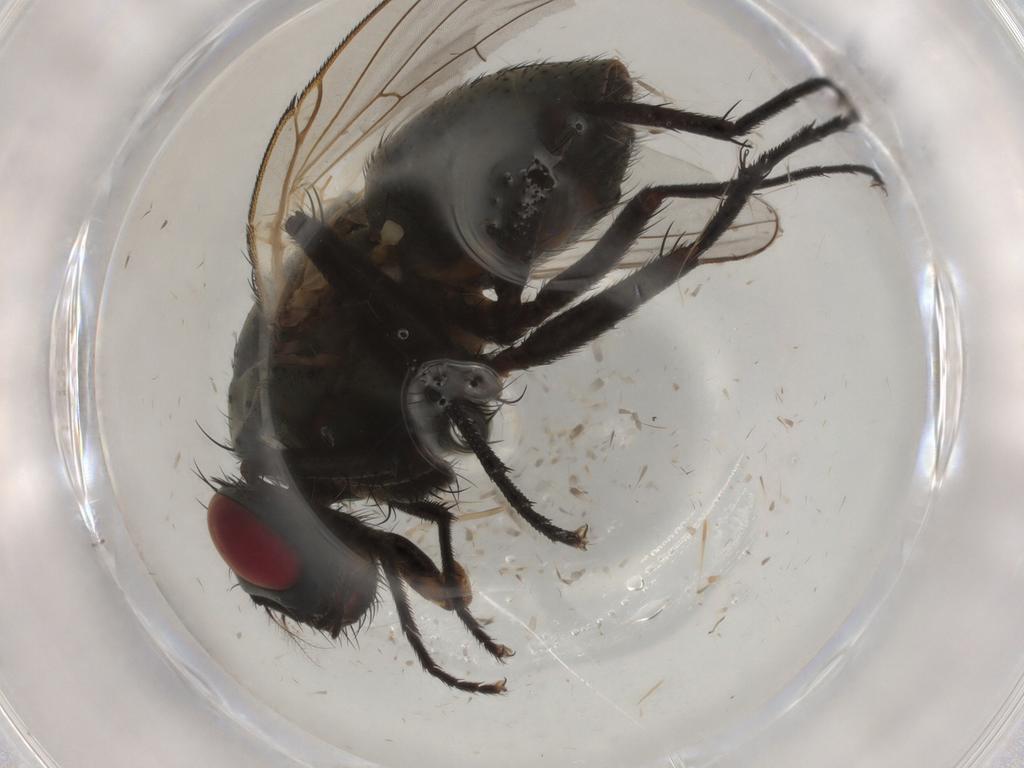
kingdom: Animalia
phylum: Arthropoda
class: Insecta
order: Diptera
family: Muscidae
